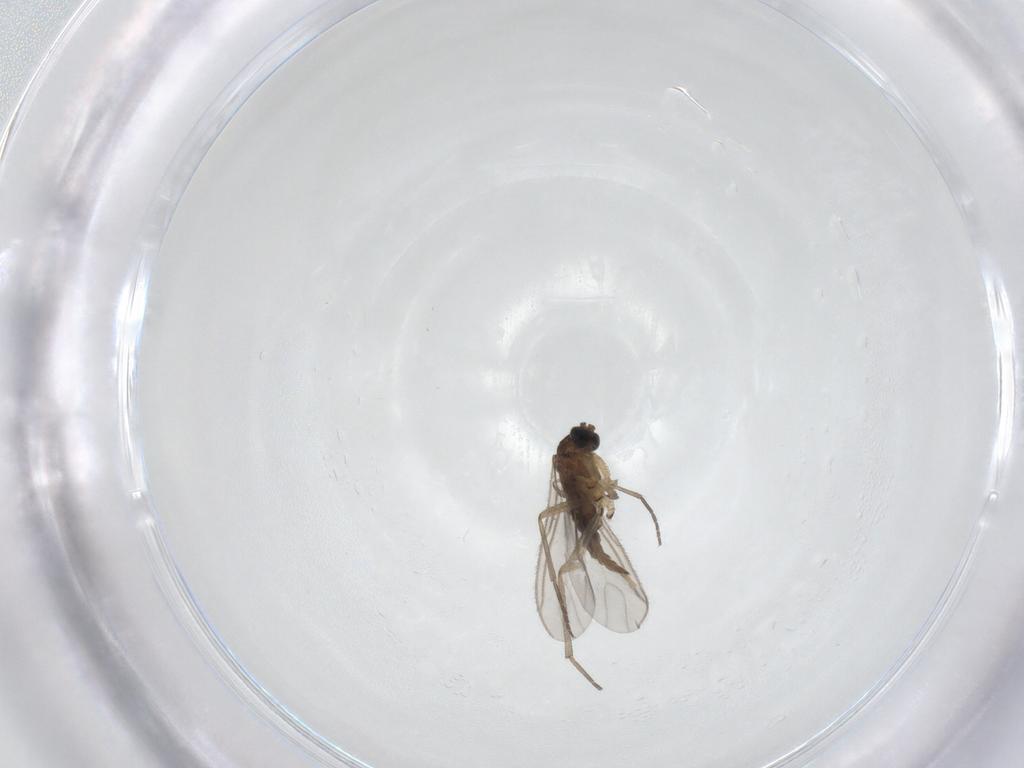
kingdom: Animalia
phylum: Arthropoda
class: Insecta
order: Diptera
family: Sciaridae
